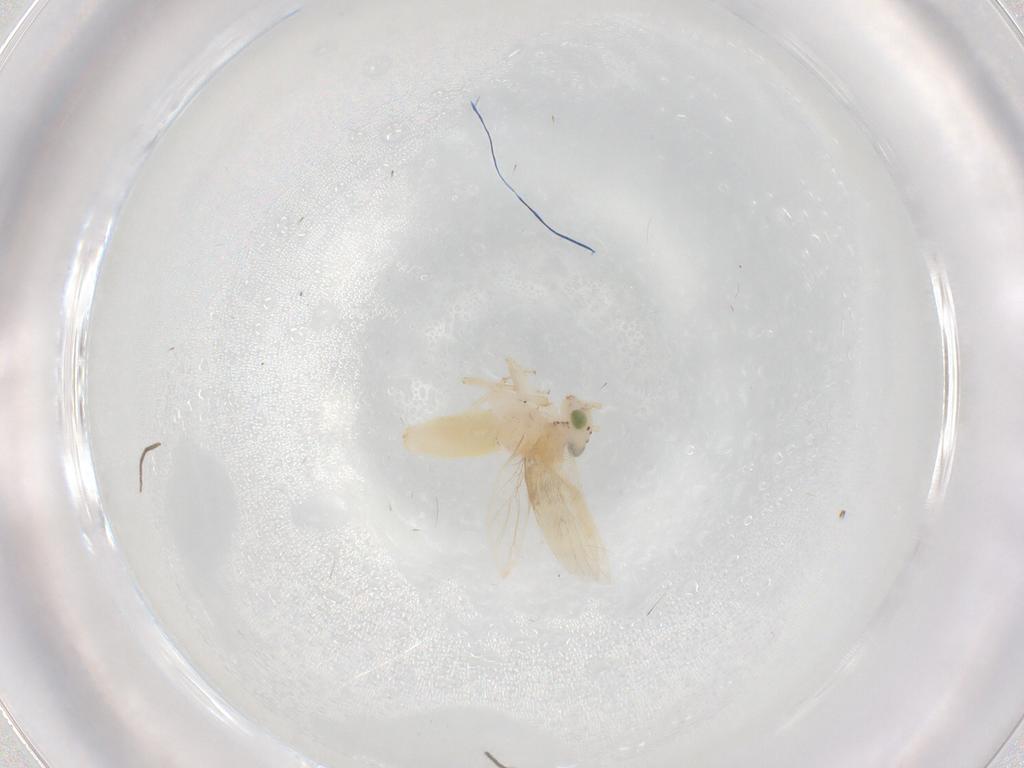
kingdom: Animalia
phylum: Arthropoda
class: Insecta
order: Psocodea
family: Lepidopsocidae
